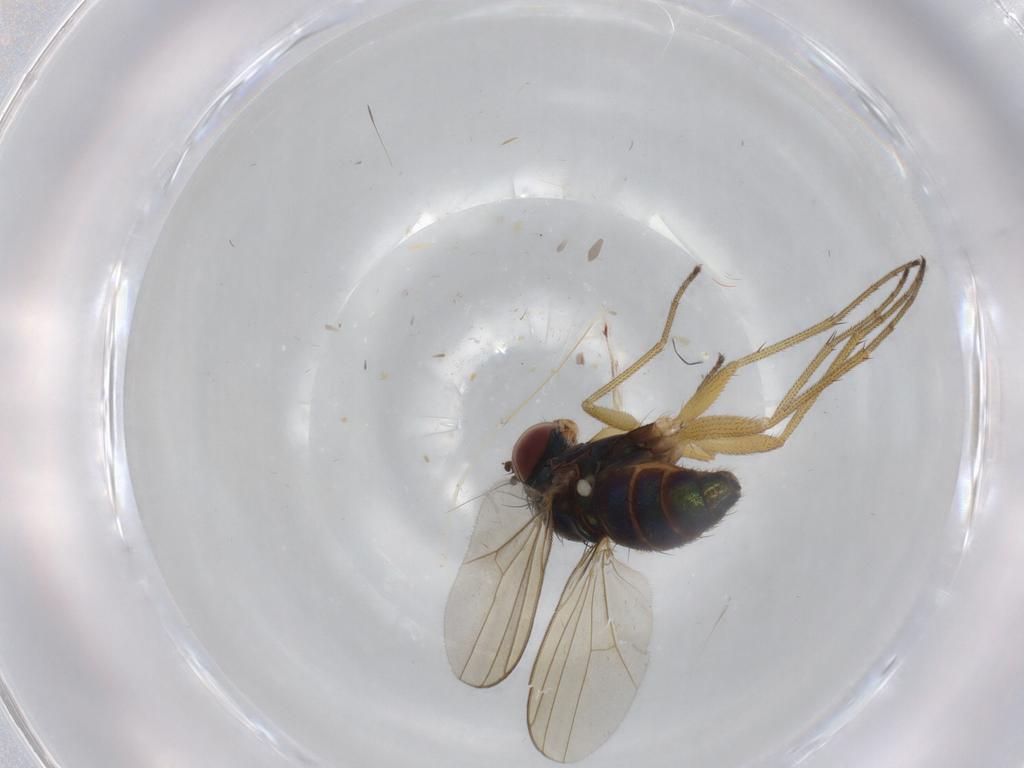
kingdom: Animalia
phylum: Arthropoda
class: Insecta
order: Diptera
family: Dolichopodidae
